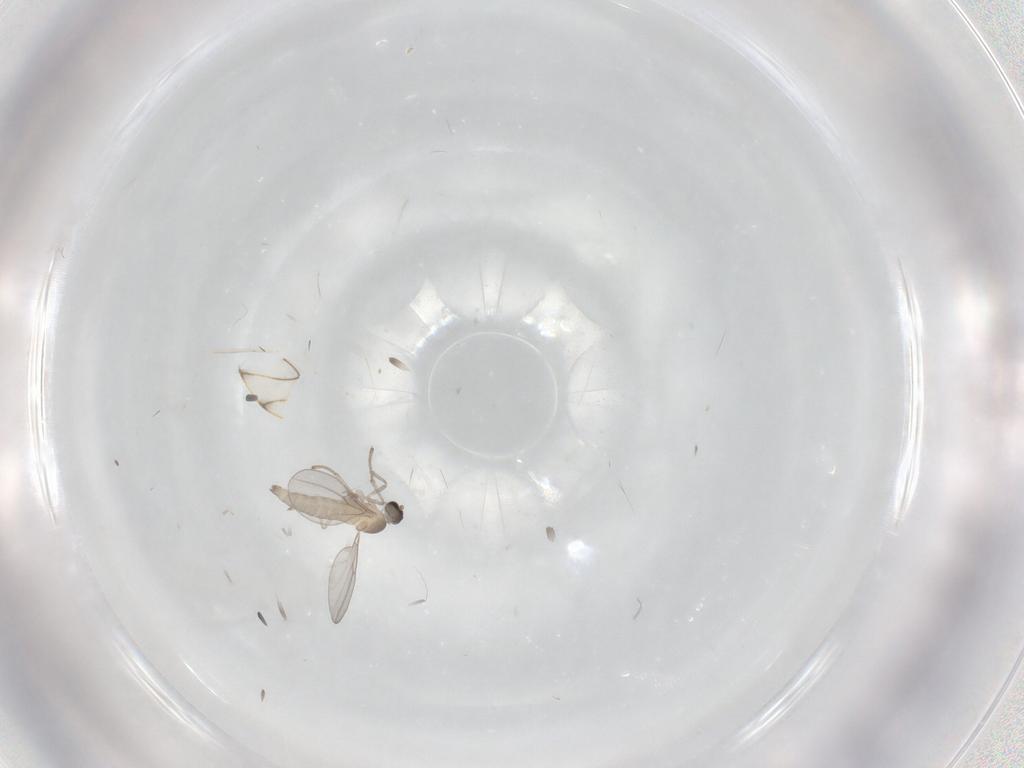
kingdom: Animalia
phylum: Arthropoda
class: Insecta
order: Diptera
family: Cecidomyiidae
